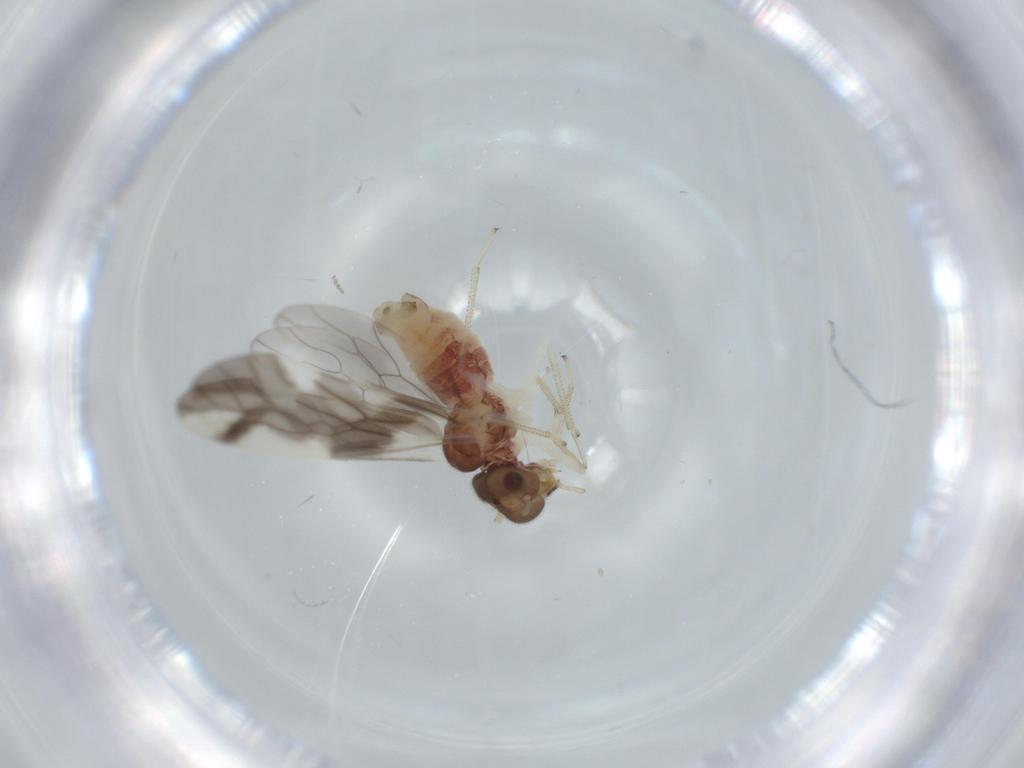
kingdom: Animalia
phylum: Arthropoda
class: Insecta
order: Psocodea
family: Caeciliusidae
